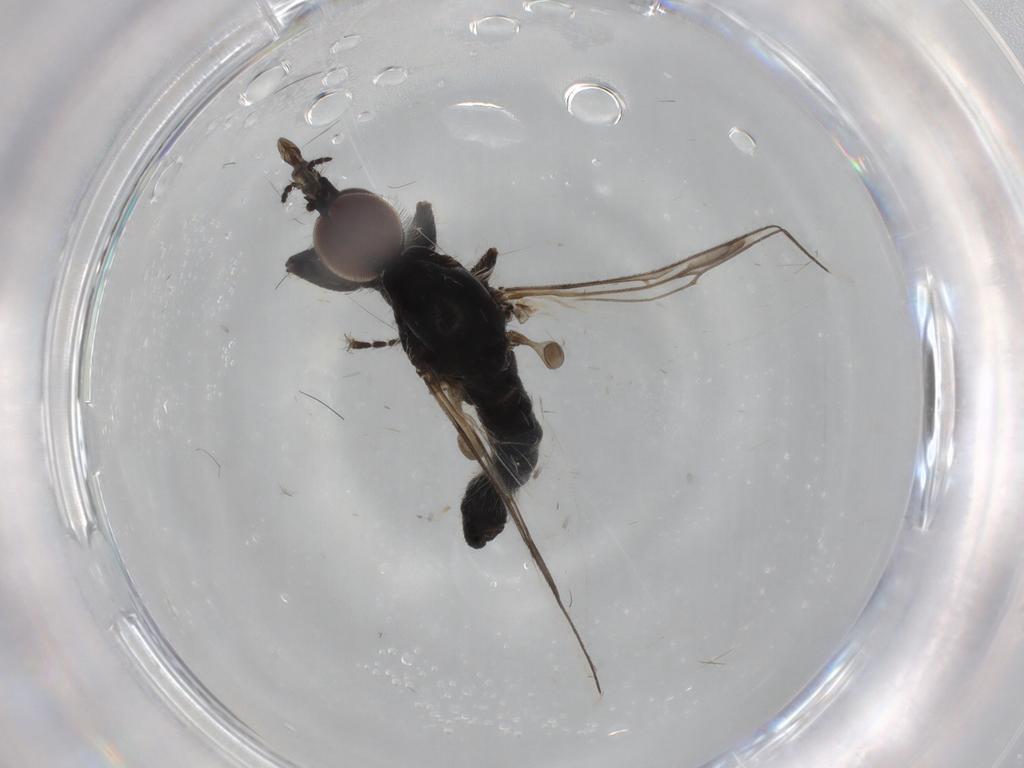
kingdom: Animalia
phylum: Arthropoda
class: Insecta
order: Diptera
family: Bibionidae
